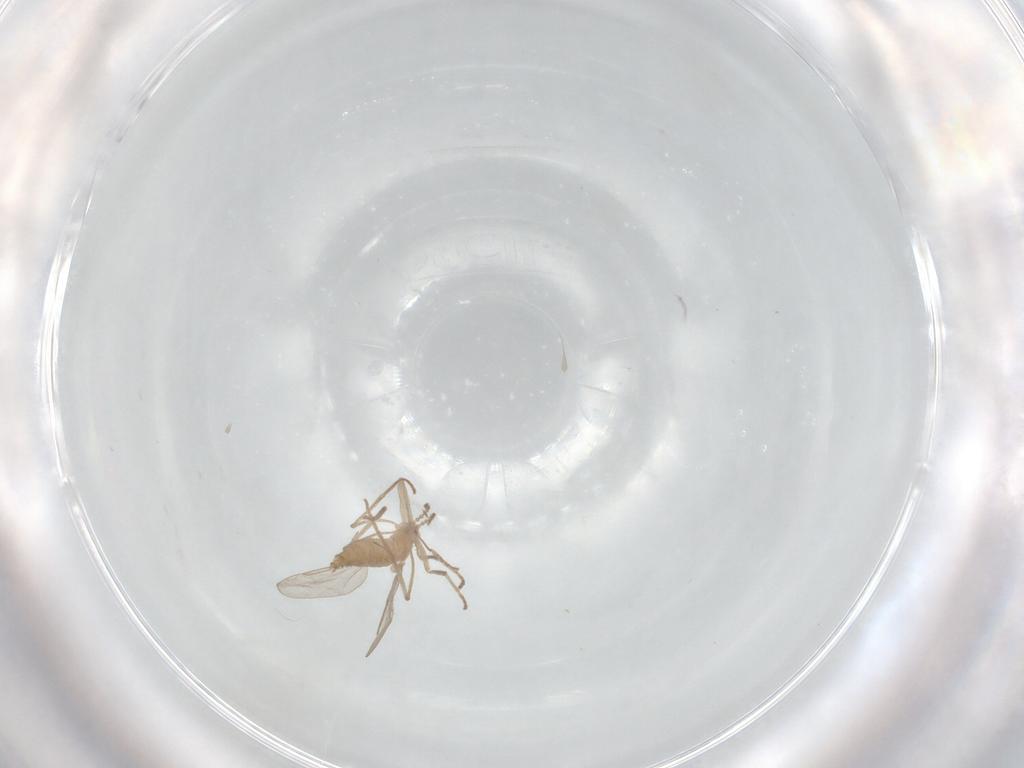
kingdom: Animalia
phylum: Arthropoda
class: Insecta
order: Diptera
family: Cecidomyiidae
